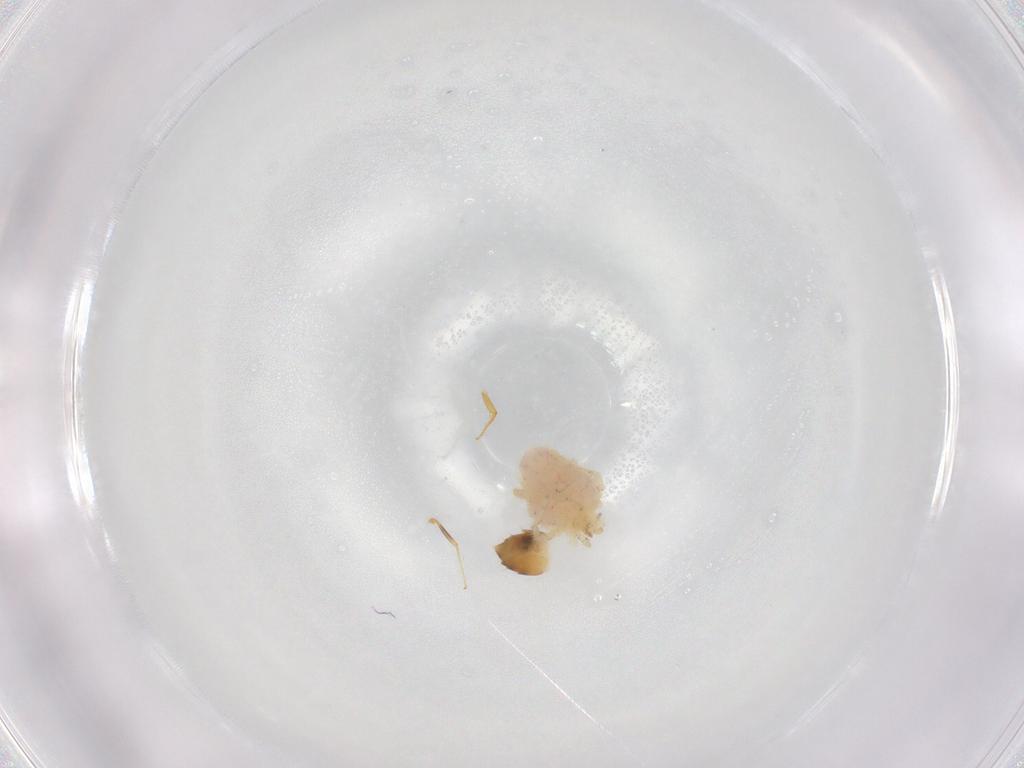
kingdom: Animalia
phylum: Arthropoda
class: Arachnida
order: Trombidiformes
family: Erythraeidae
